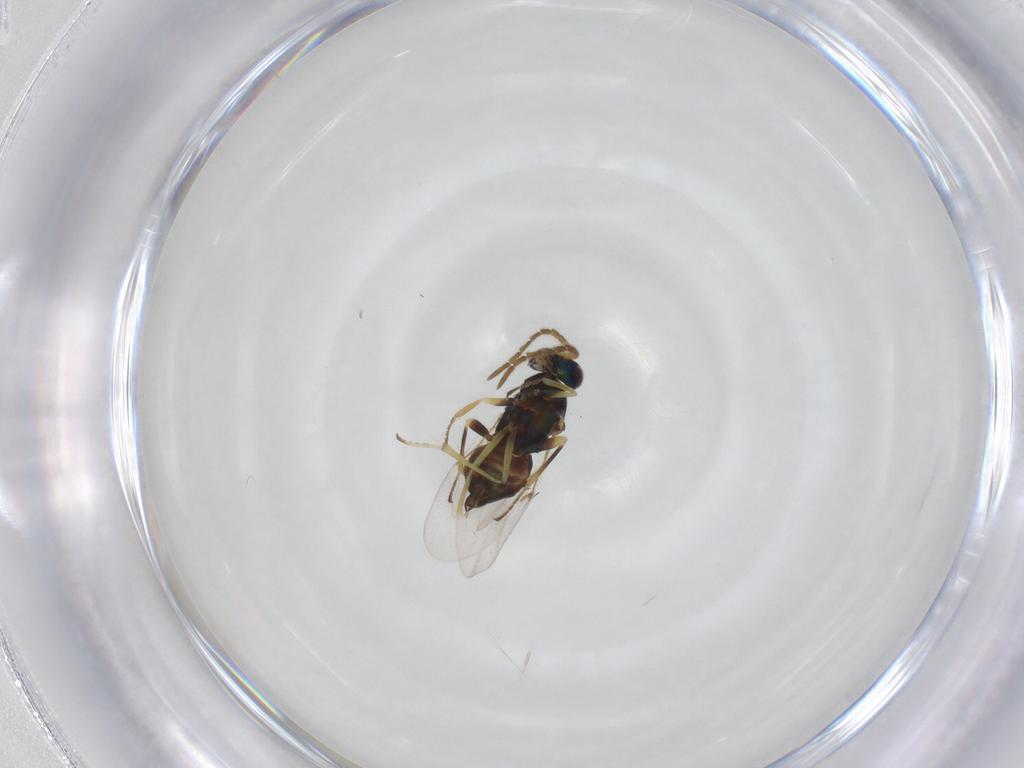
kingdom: Animalia
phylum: Arthropoda
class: Insecta
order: Hymenoptera
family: Encyrtidae
